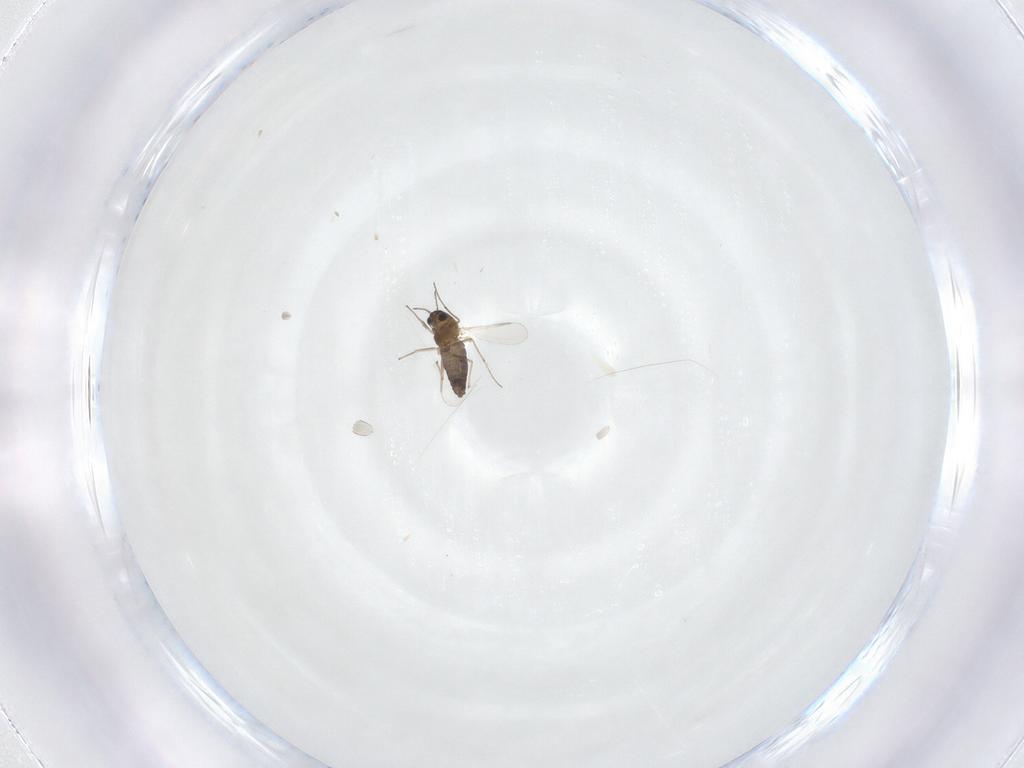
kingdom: Animalia
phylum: Arthropoda
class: Insecta
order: Diptera
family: Chironomidae
